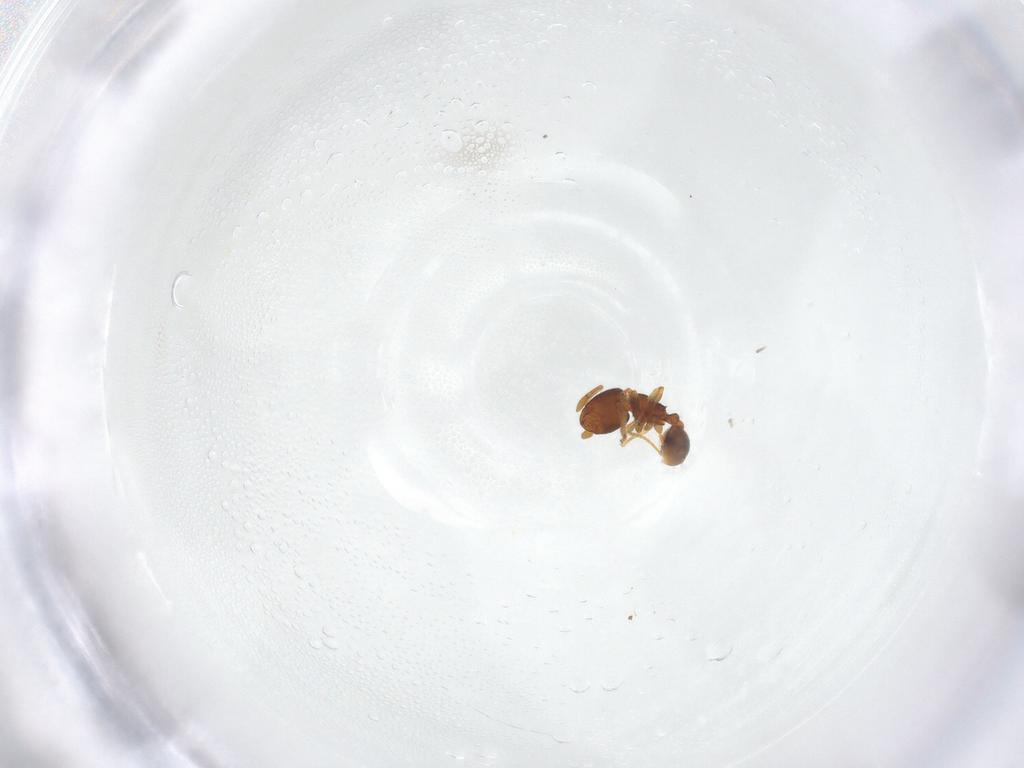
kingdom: Animalia
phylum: Arthropoda
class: Insecta
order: Hymenoptera
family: Formicidae
